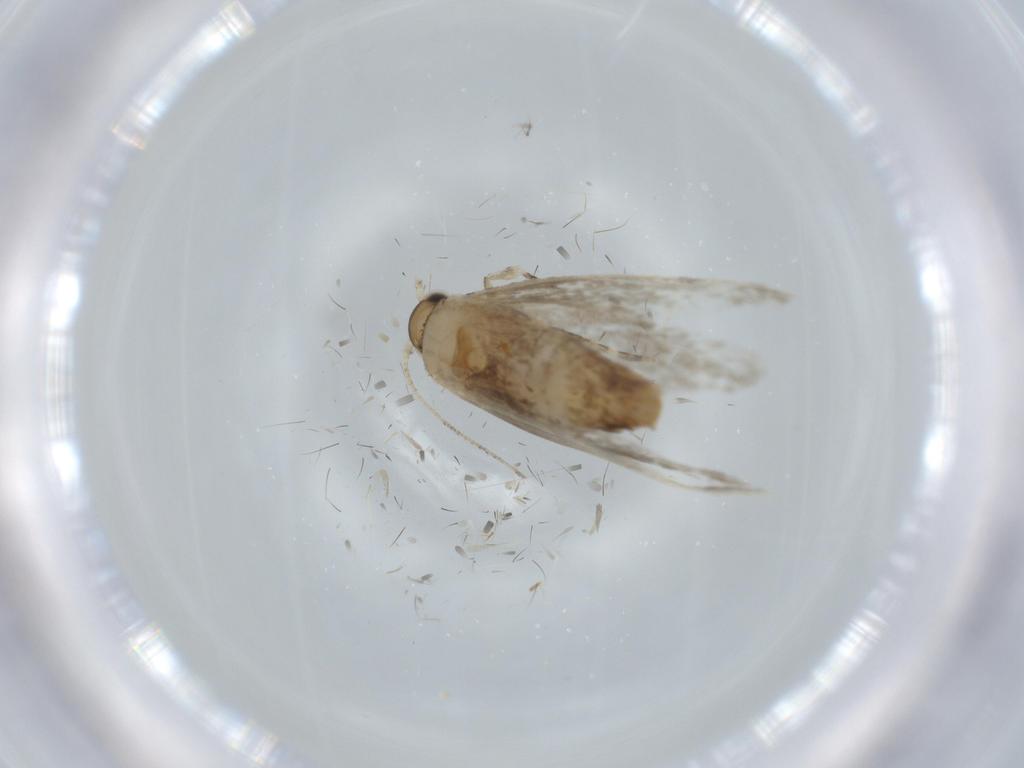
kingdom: Animalia
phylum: Arthropoda
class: Insecta
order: Lepidoptera
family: Tineidae
